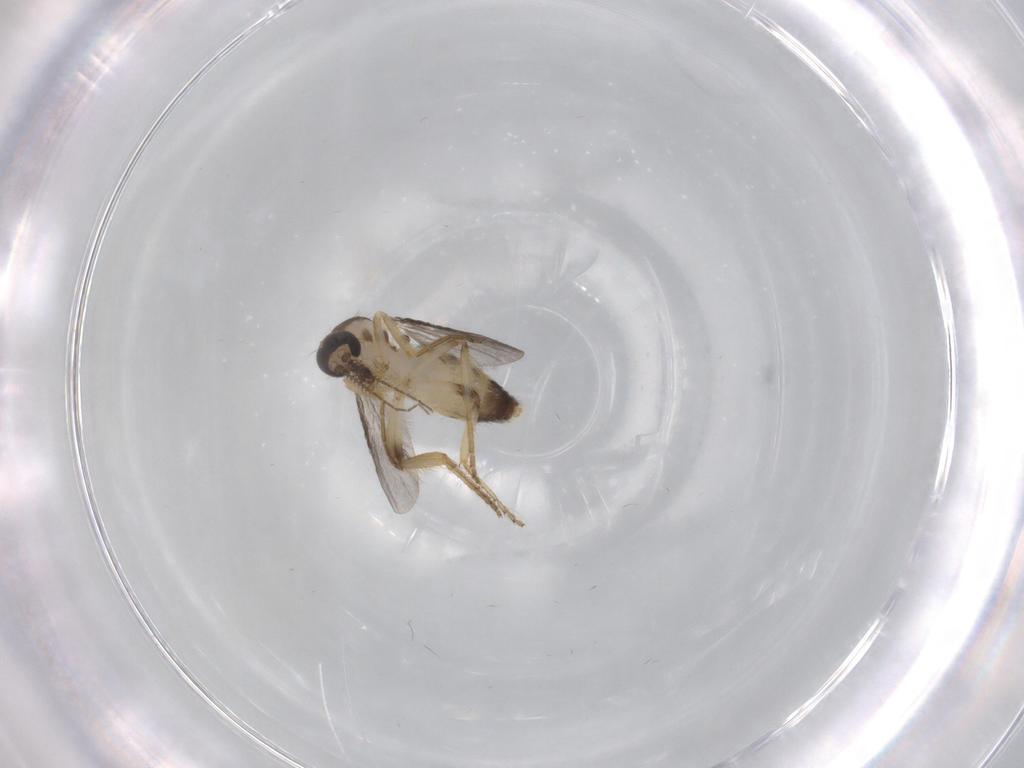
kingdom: Animalia
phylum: Arthropoda
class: Insecta
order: Diptera
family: Ceratopogonidae
